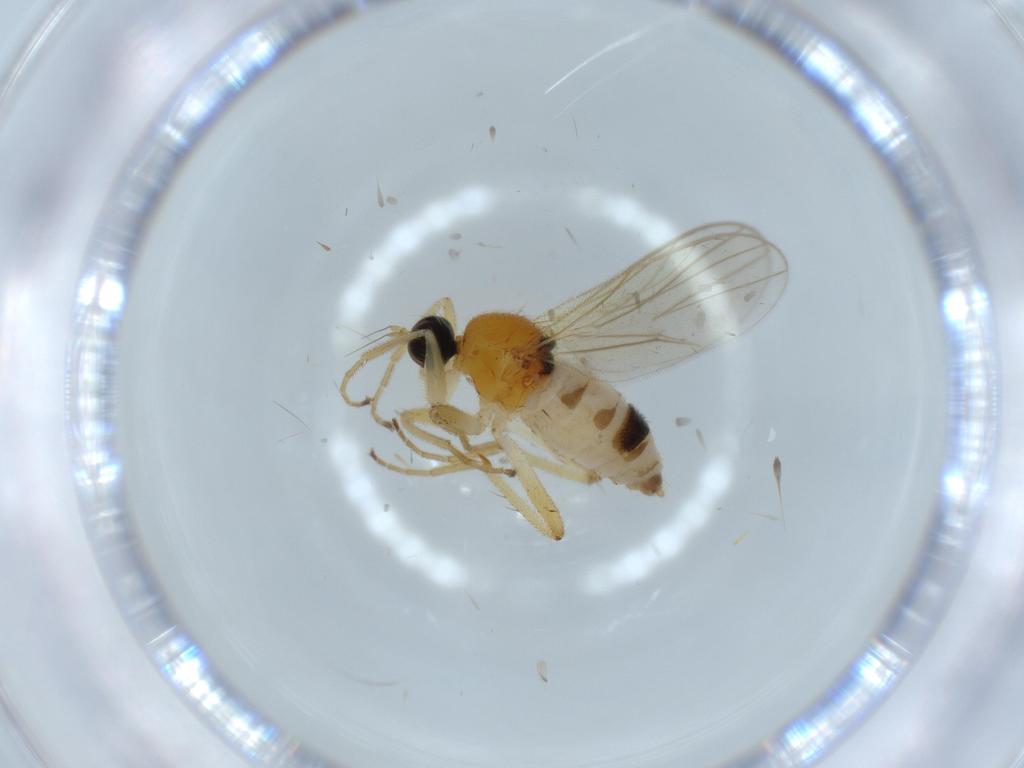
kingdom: Animalia
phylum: Arthropoda
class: Insecta
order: Diptera
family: Hybotidae
